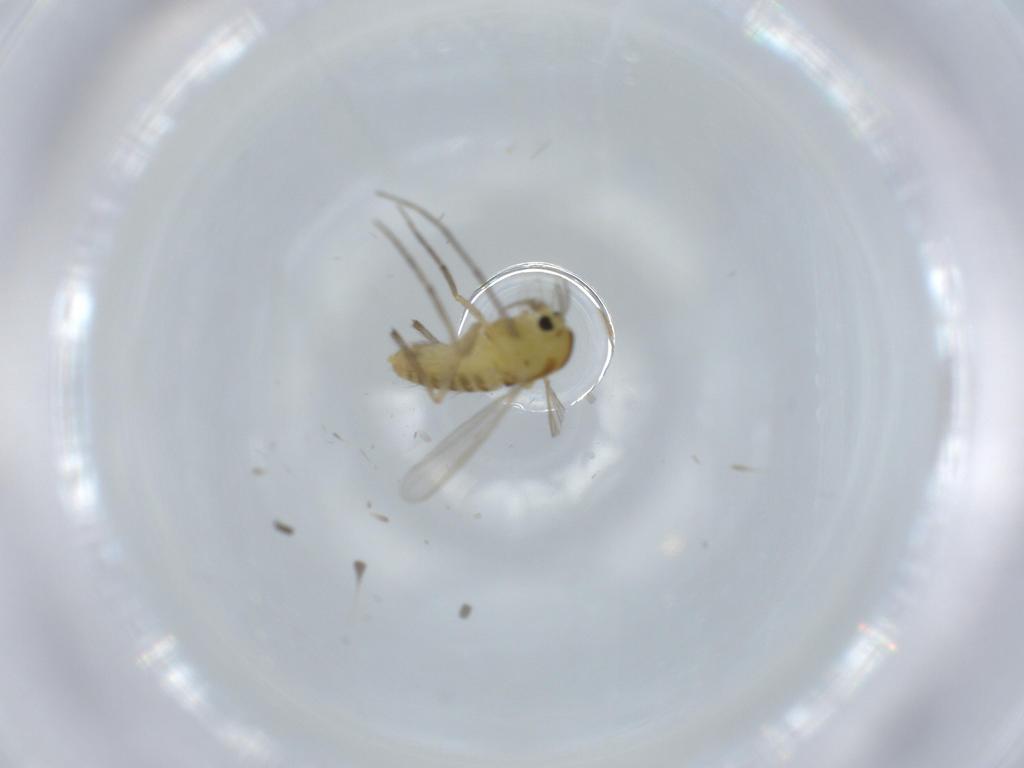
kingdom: Animalia
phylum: Arthropoda
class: Insecta
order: Diptera
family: Chironomidae
